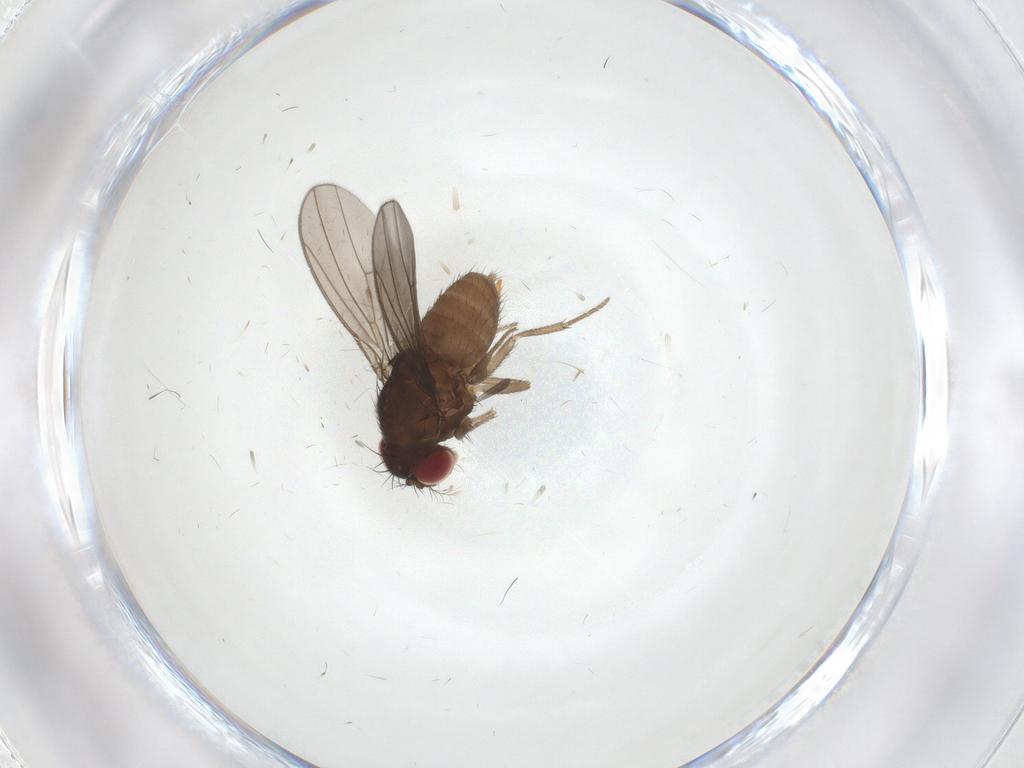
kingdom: Animalia
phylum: Arthropoda
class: Insecta
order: Diptera
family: Drosophilidae
